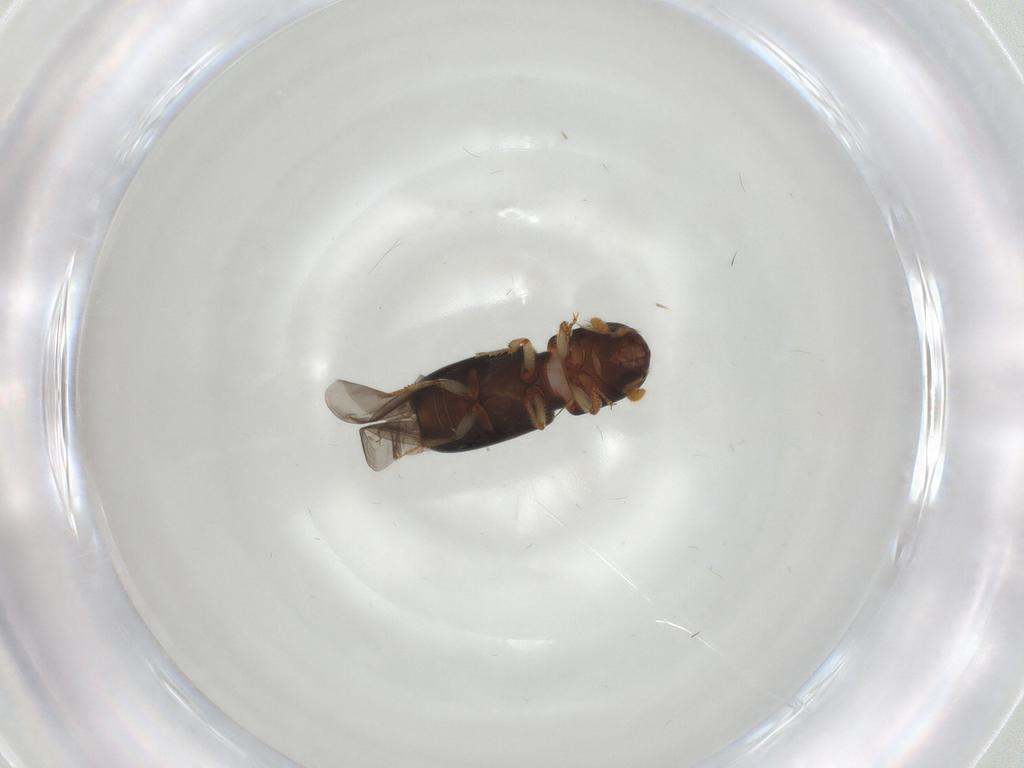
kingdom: Animalia
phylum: Arthropoda
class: Insecta
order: Coleoptera
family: Curculionidae
